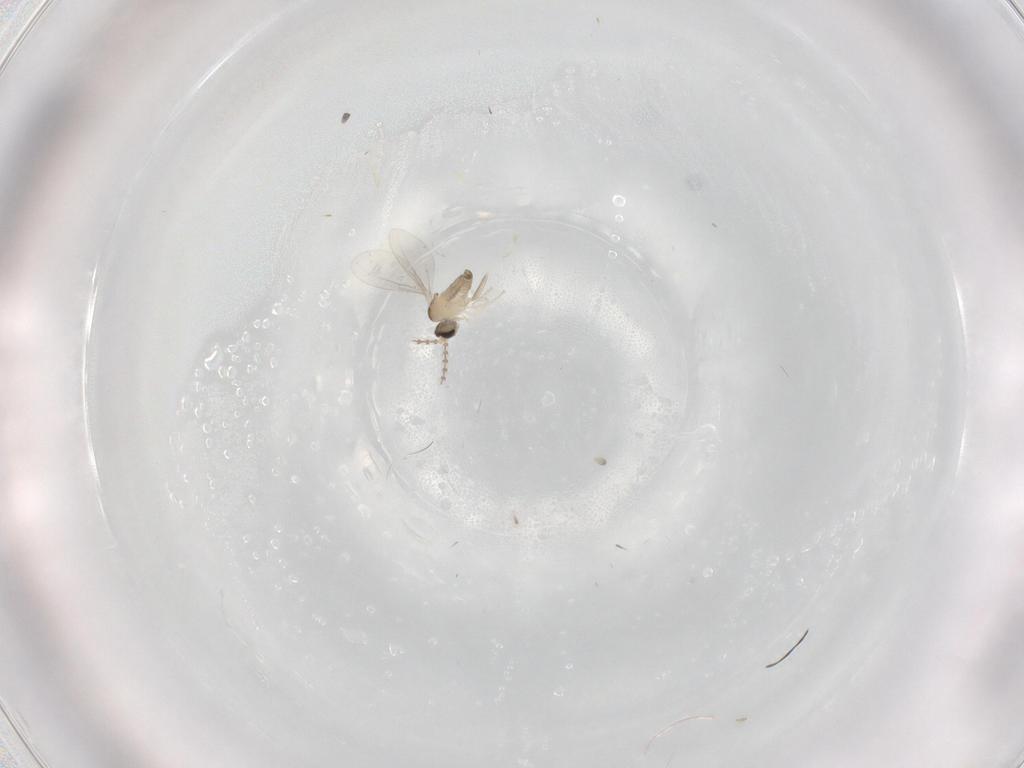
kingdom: Animalia
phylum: Arthropoda
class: Insecta
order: Diptera
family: Cecidomyiidae
